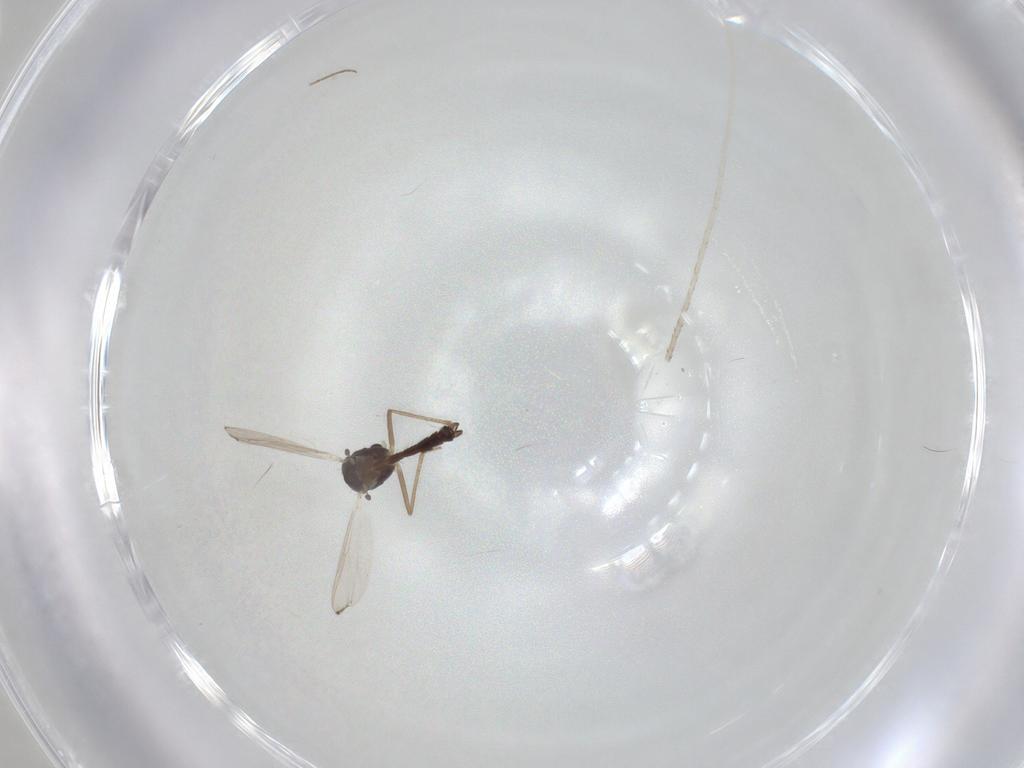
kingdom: Animalia
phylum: Arthropoda
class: Insecta
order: Diptera
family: Chironomidae
